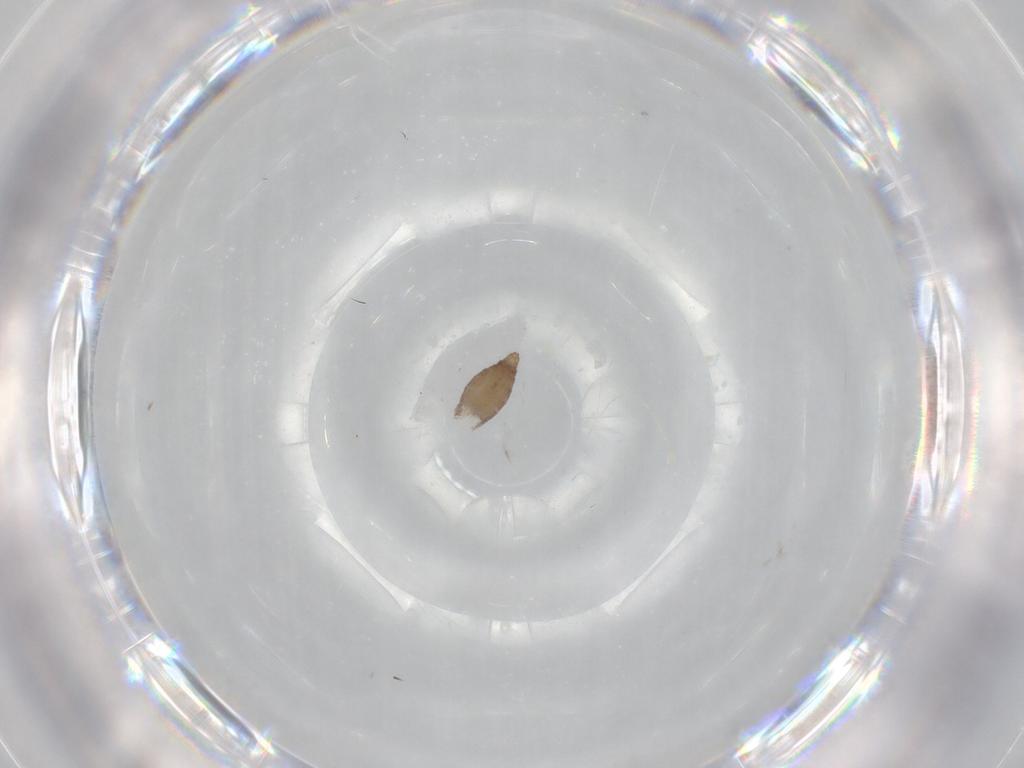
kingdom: Animalia
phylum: Arthropoda
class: Insecta
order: Diptera
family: Chironomidae
